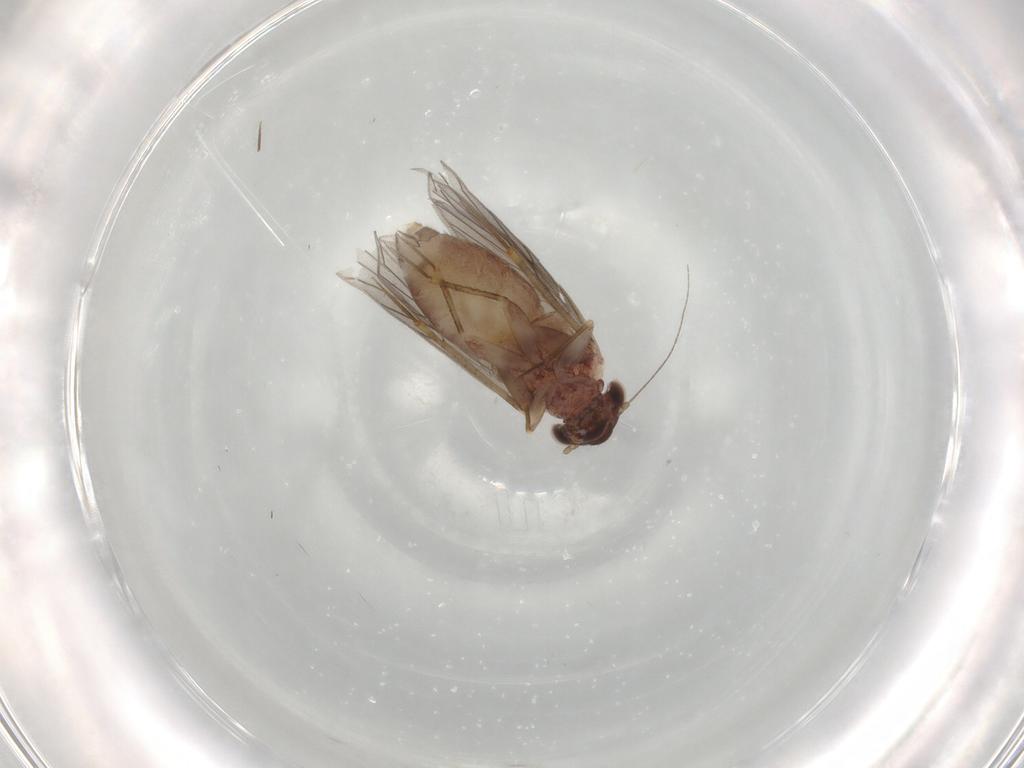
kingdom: Animalia
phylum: Arthropoda
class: Insecta
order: Psocodea
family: Lepidopsocidae
